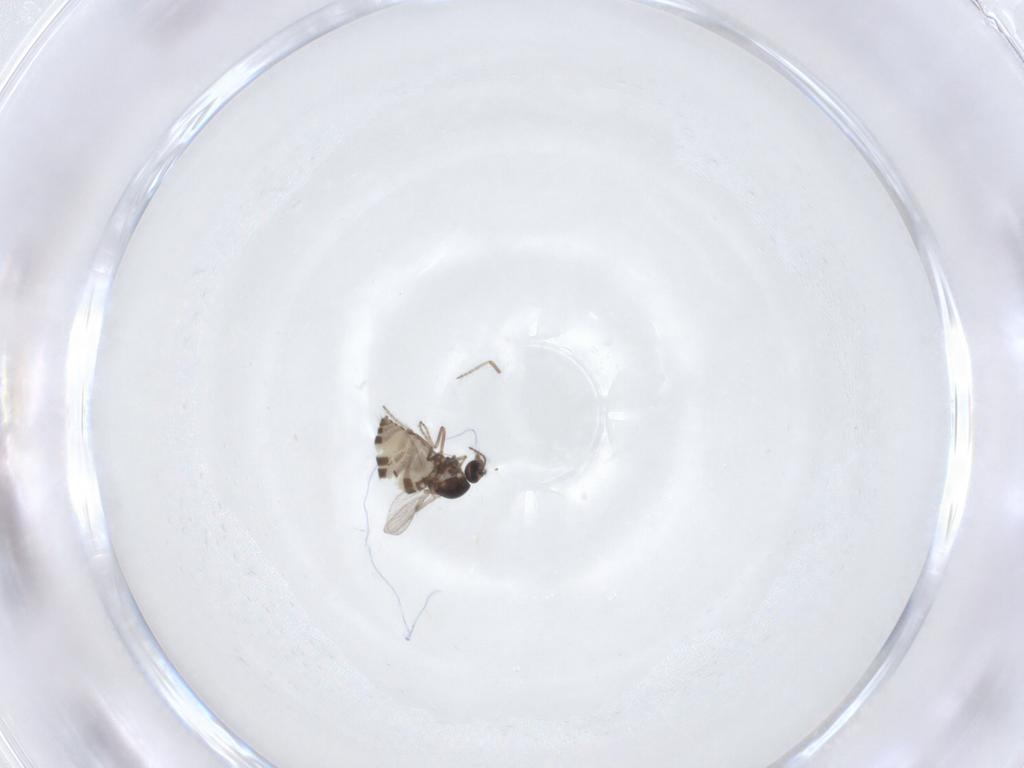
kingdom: Animalia
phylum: Arthropoda
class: Insecta
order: Diptera
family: Ceratopogonidae
